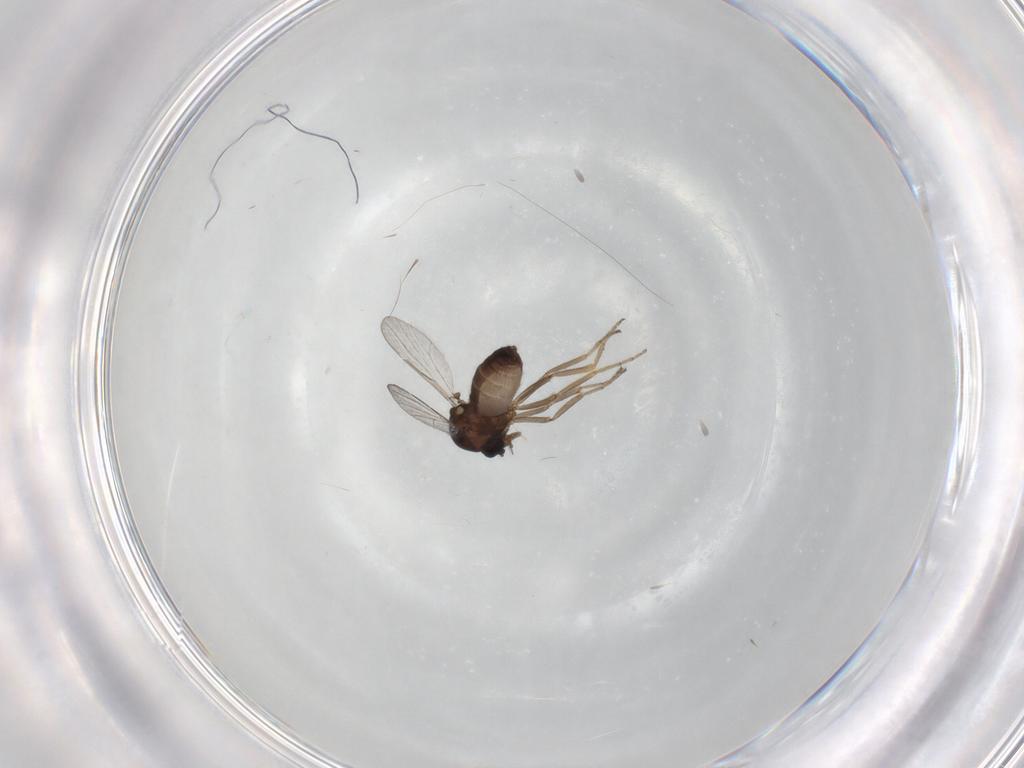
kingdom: Animalia
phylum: Arthropoda
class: Insecta
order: Diptera
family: Ceratopogonidae
